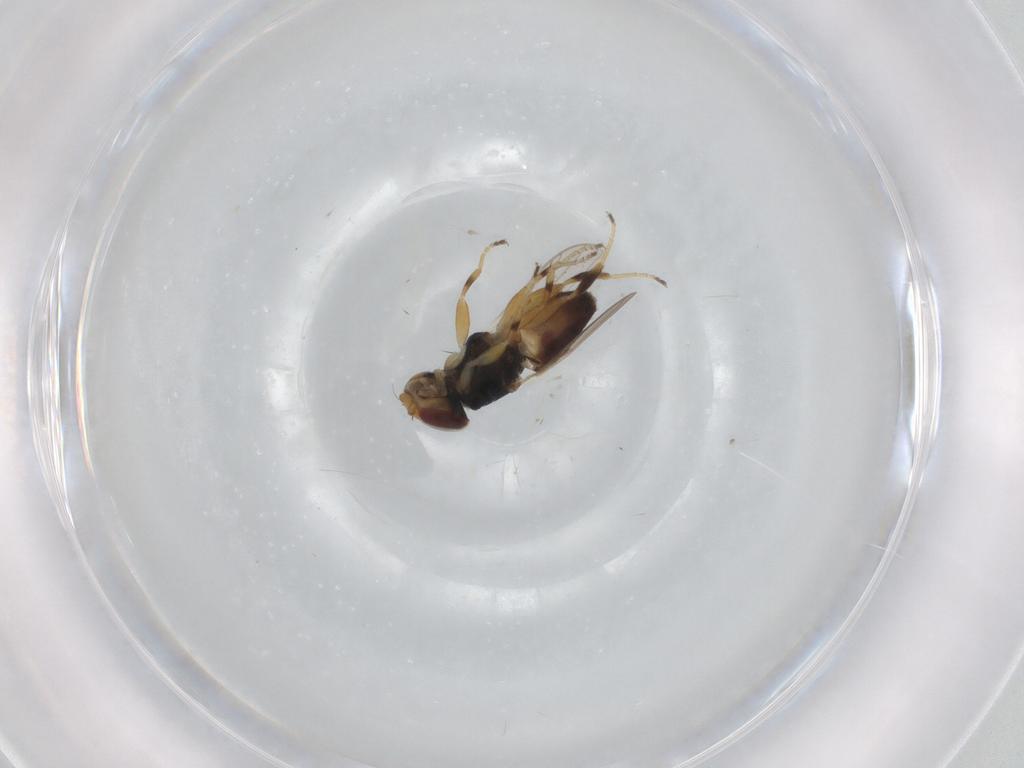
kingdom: Animalia
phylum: Arthropoda
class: Insecta
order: Diptera
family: Chloropidae
